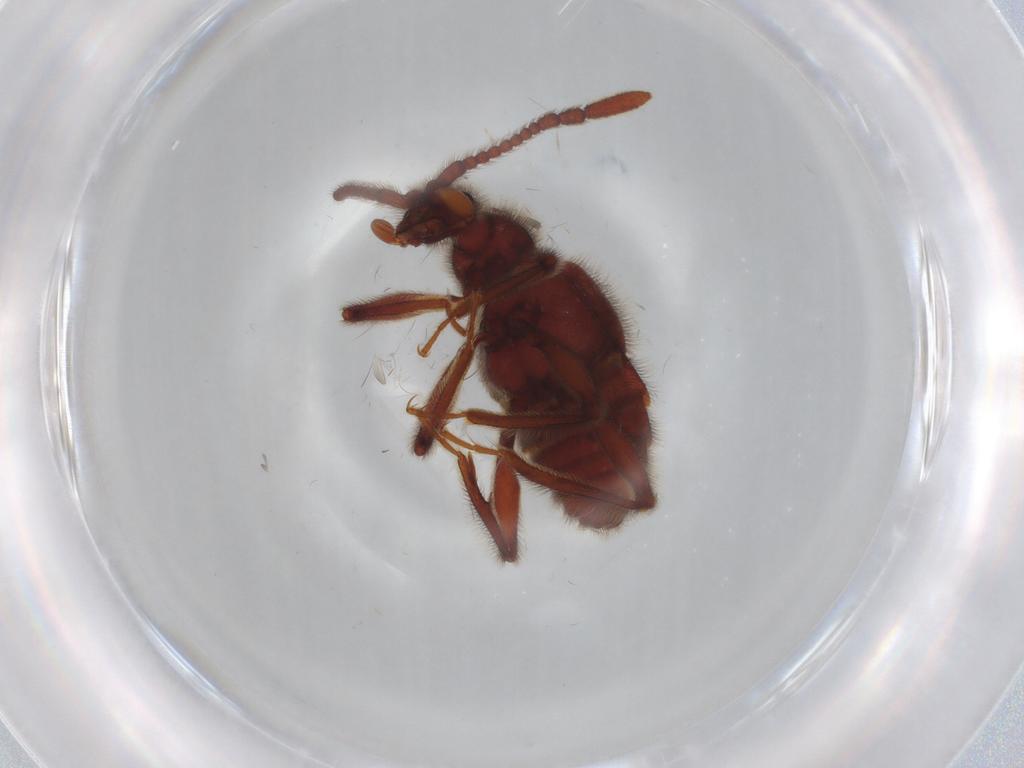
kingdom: Animalia
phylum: Arthropoda
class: Insecta
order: Coleoptera
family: Staphylinidae
